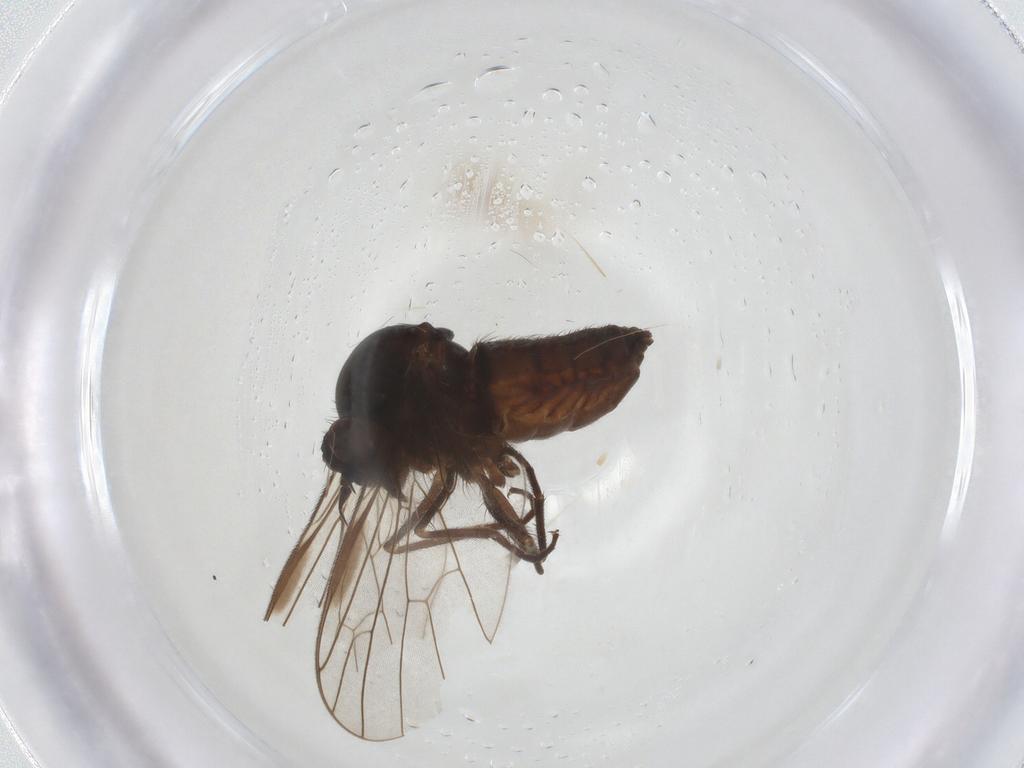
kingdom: Animalia
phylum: Arthropoda
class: Insecta
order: Diptera
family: Empididae
